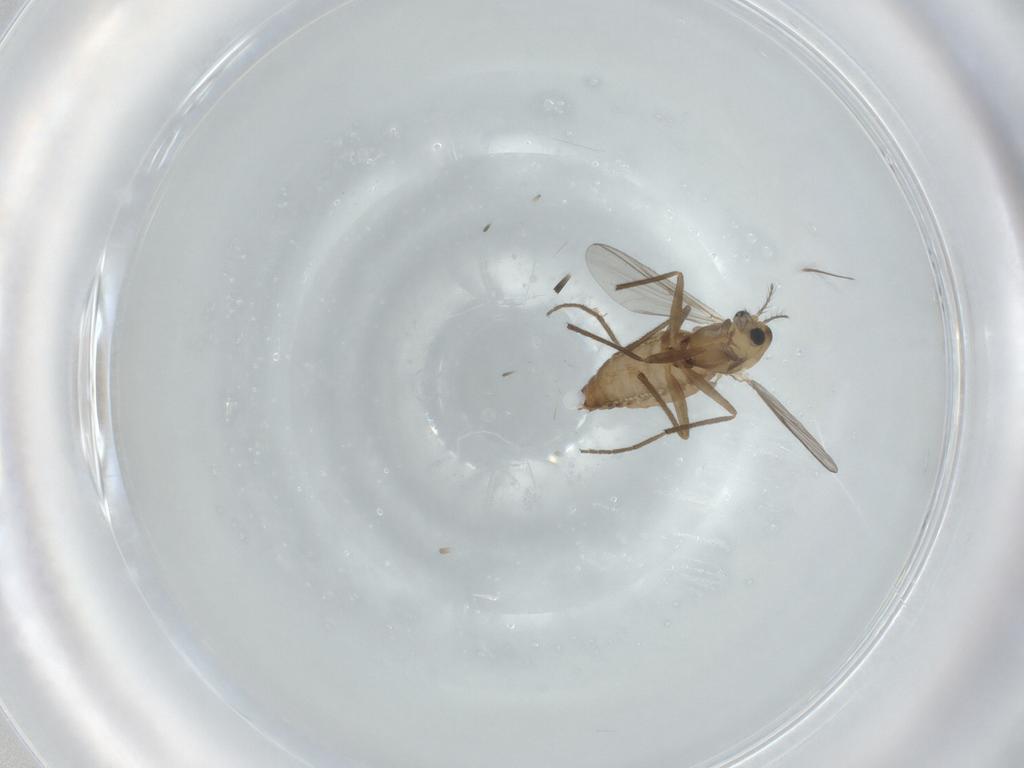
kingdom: Animalia
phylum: Arthropoda
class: Insecta
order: Diptera
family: Chironomidae
